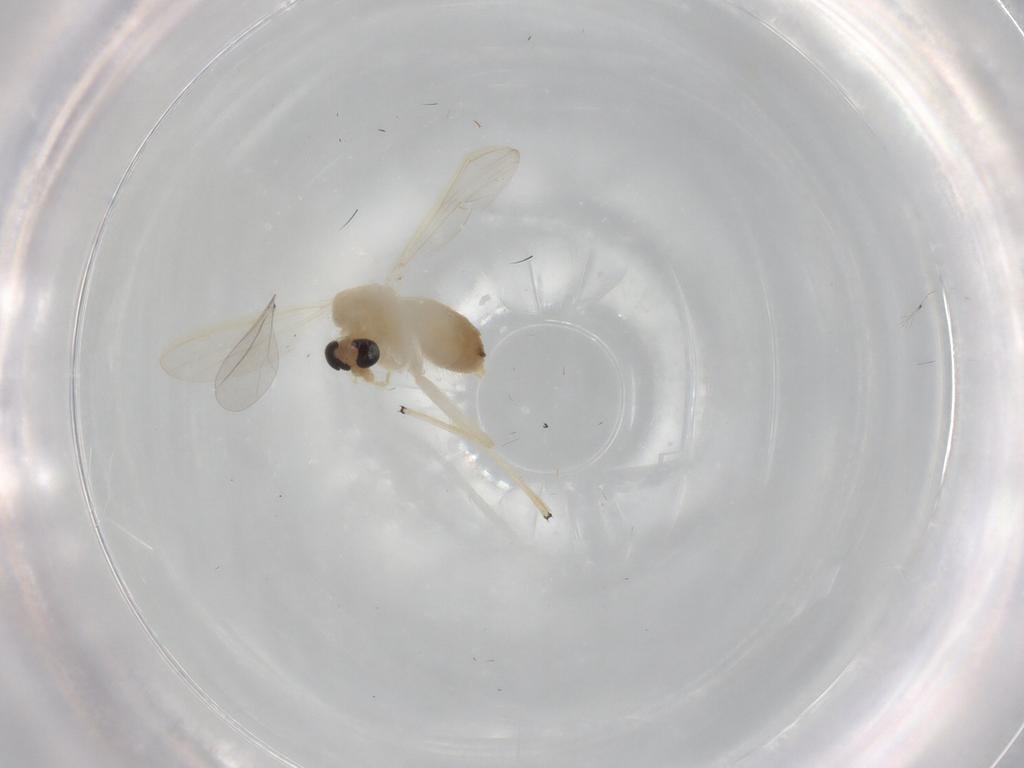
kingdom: Animalia
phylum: Arthropoda
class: Insecta
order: Diptera
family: Chironomidae
